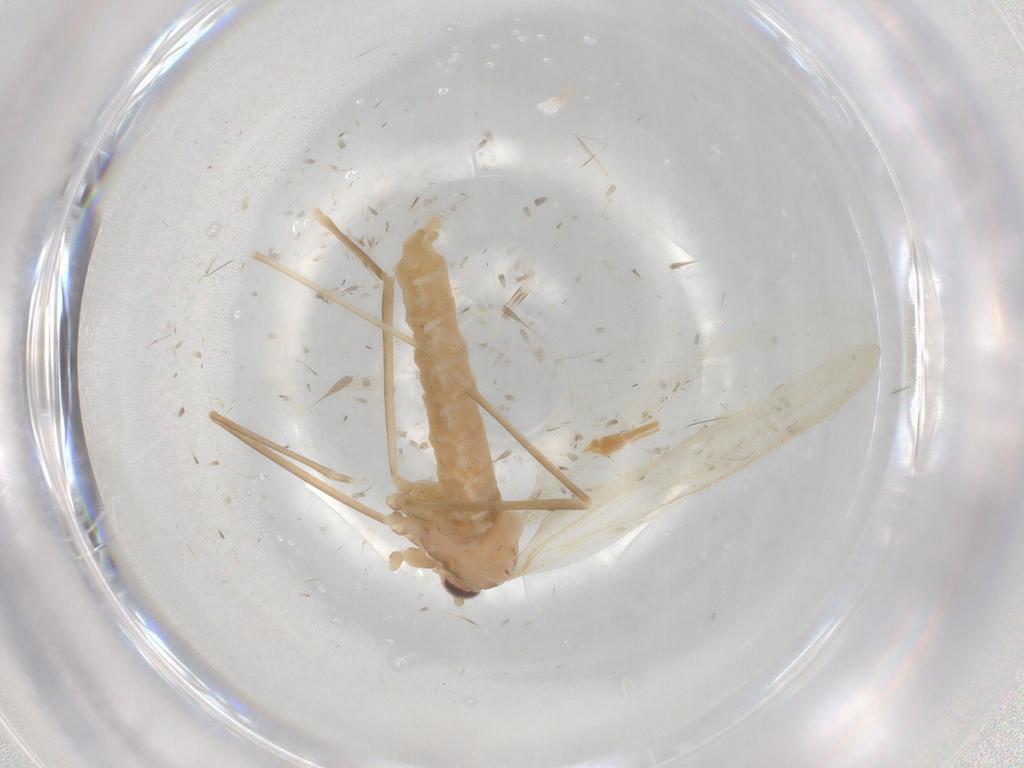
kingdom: Animalia
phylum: Arthropoda
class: Insecta
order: Diptera
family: Cecidomyiidae
